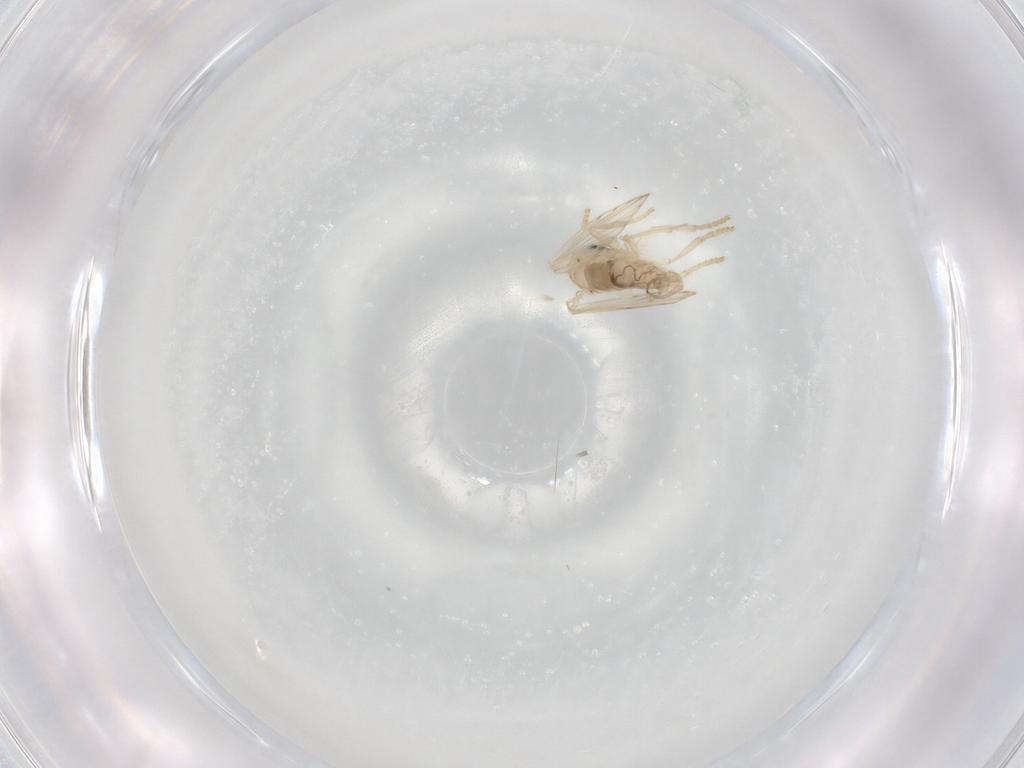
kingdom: Animalia
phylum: Arthropoda
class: Insecta
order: Diptera
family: Psychodidae
